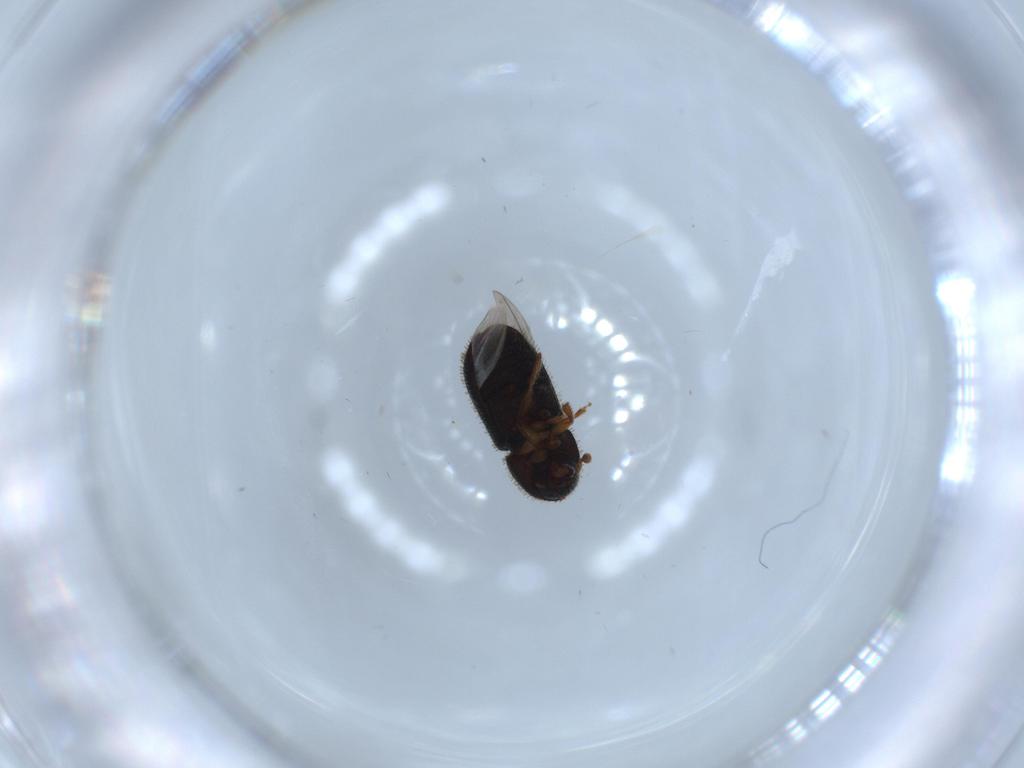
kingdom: Animalia
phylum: Arthropoda
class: Insecta
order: Coleoptera
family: Curculionidae
